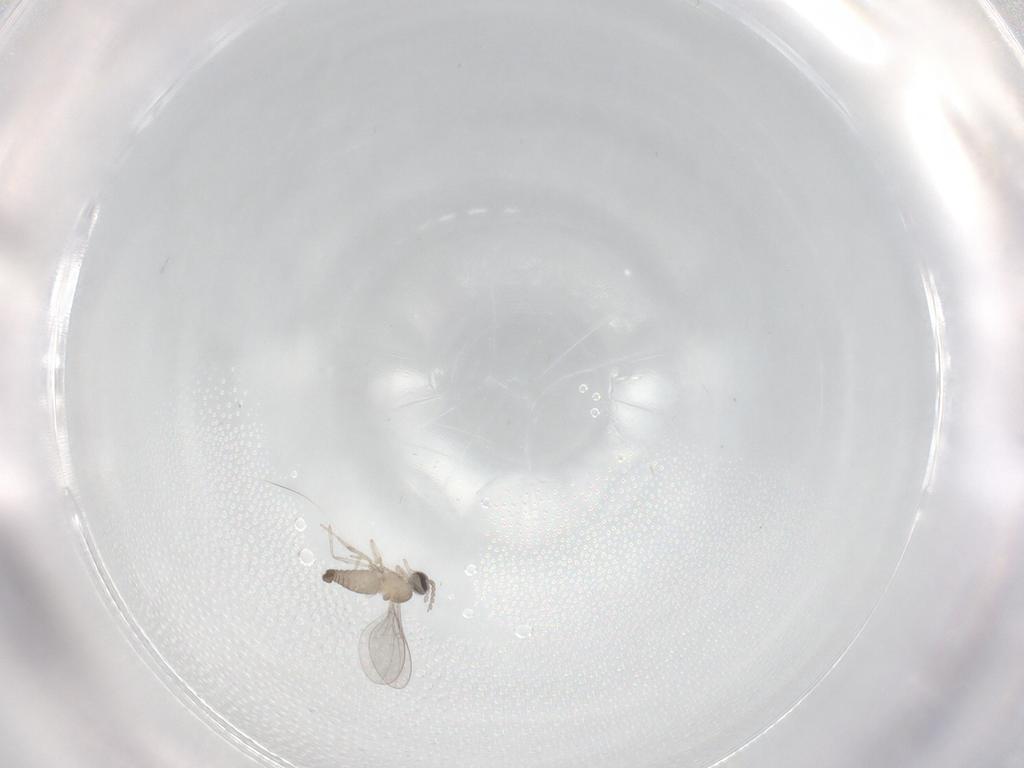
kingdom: Animalia
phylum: Arthropoda
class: Insecta
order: Diptera
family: Cecidomyiidae
